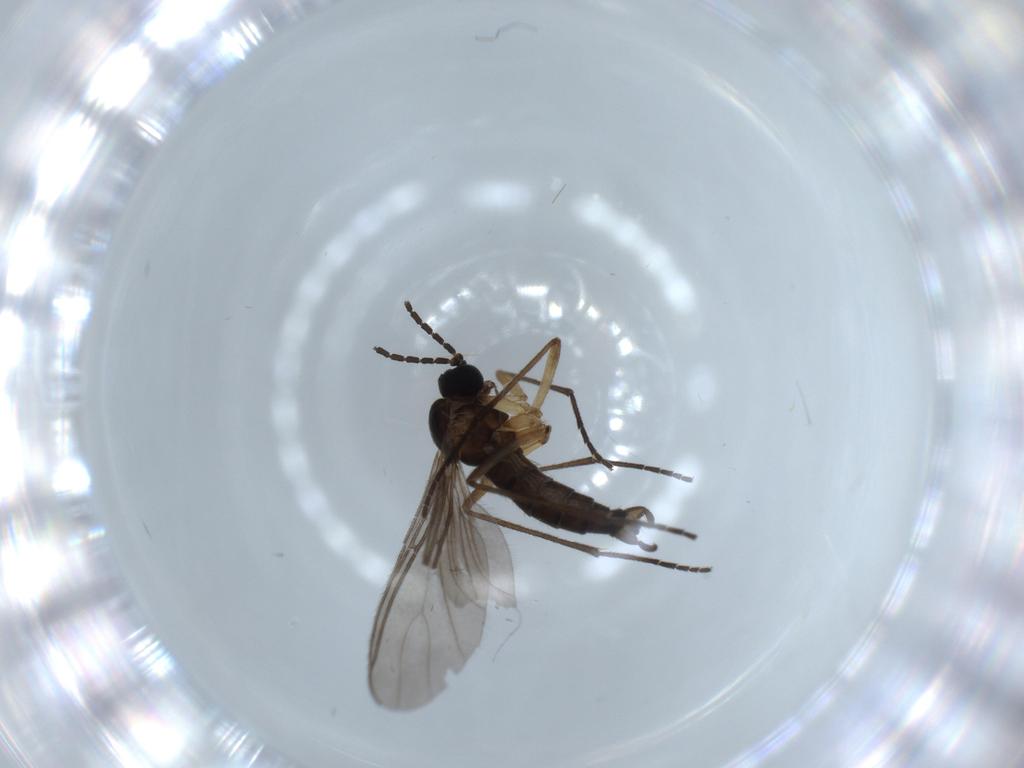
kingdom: Animalia
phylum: Arthropoda
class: Insecta
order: Diptera
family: Sciaridae
